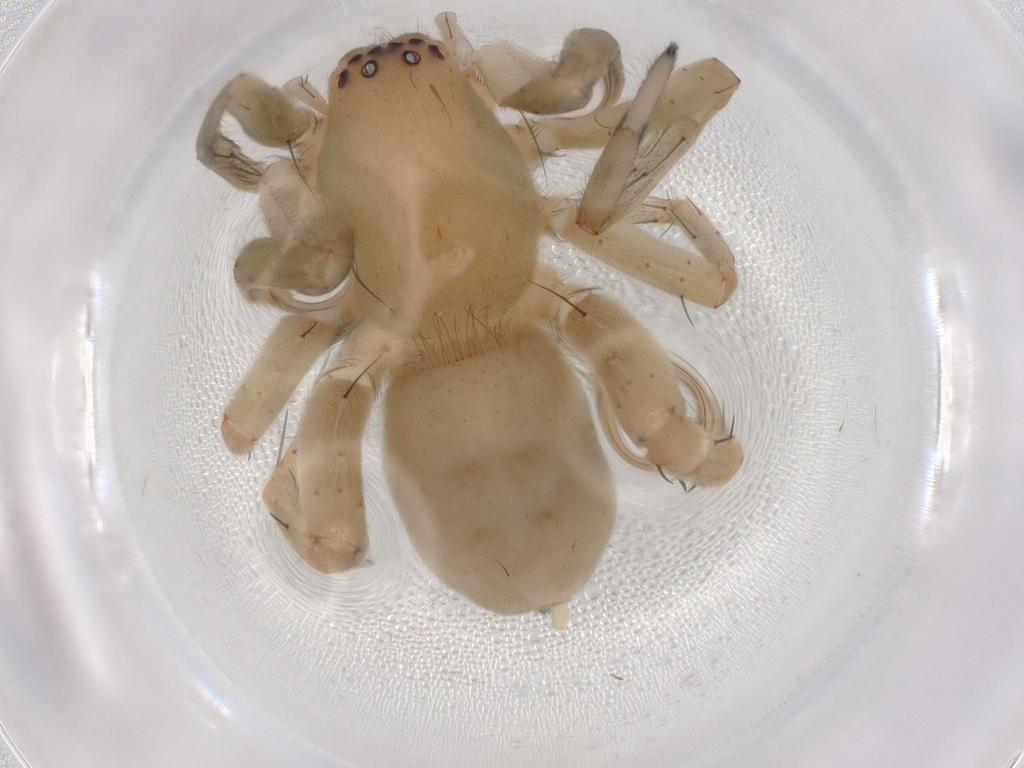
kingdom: Animalia
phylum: Arthropoda
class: Arachnida
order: Araneae
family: Clubionidae
